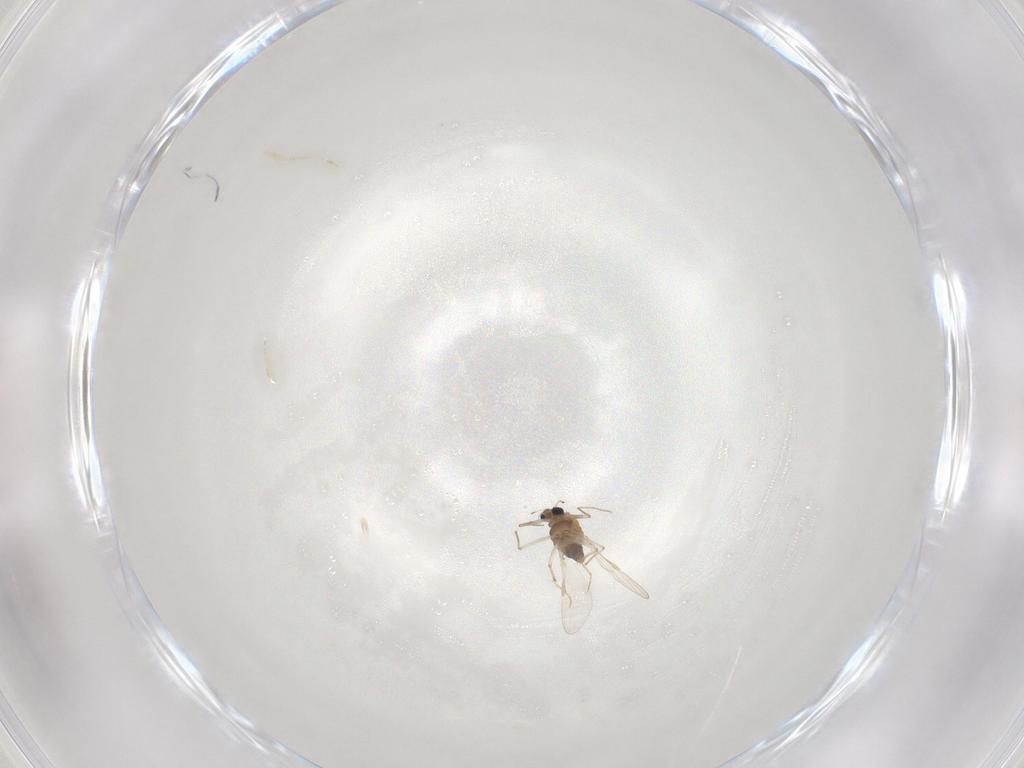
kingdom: Animalia
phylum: Arthropoda
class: Insecta
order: Diptera
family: Chironomidae
